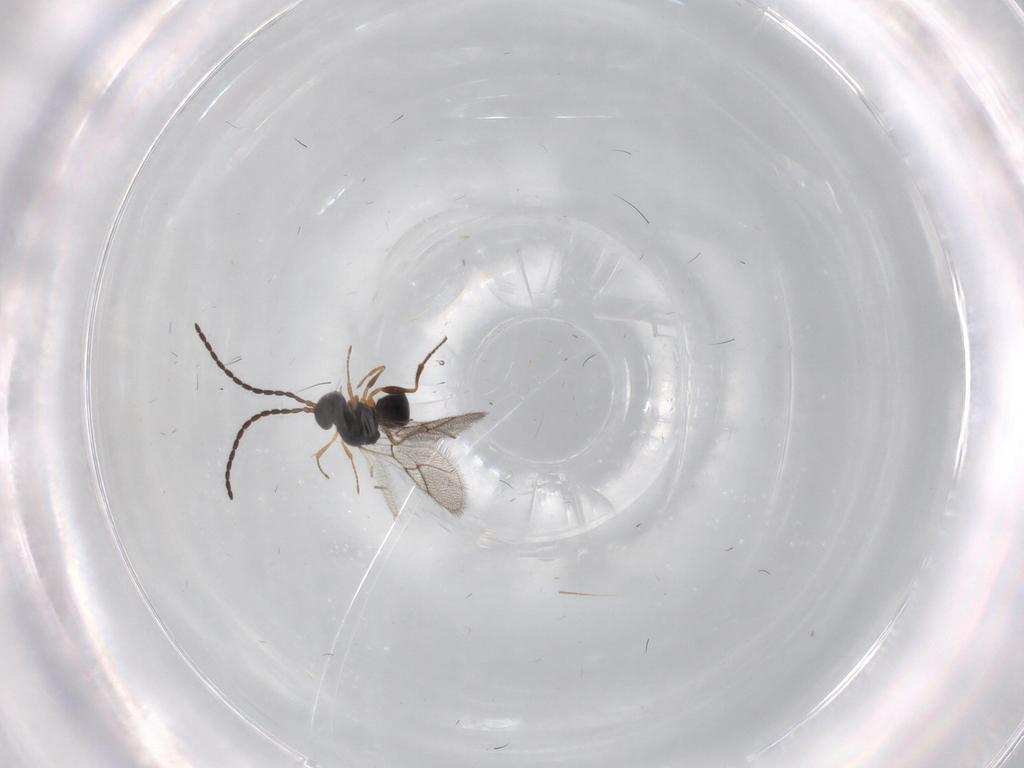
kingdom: Animalia
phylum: Arthropoda
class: Insecta
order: Hymenoptera
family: Figitidae
